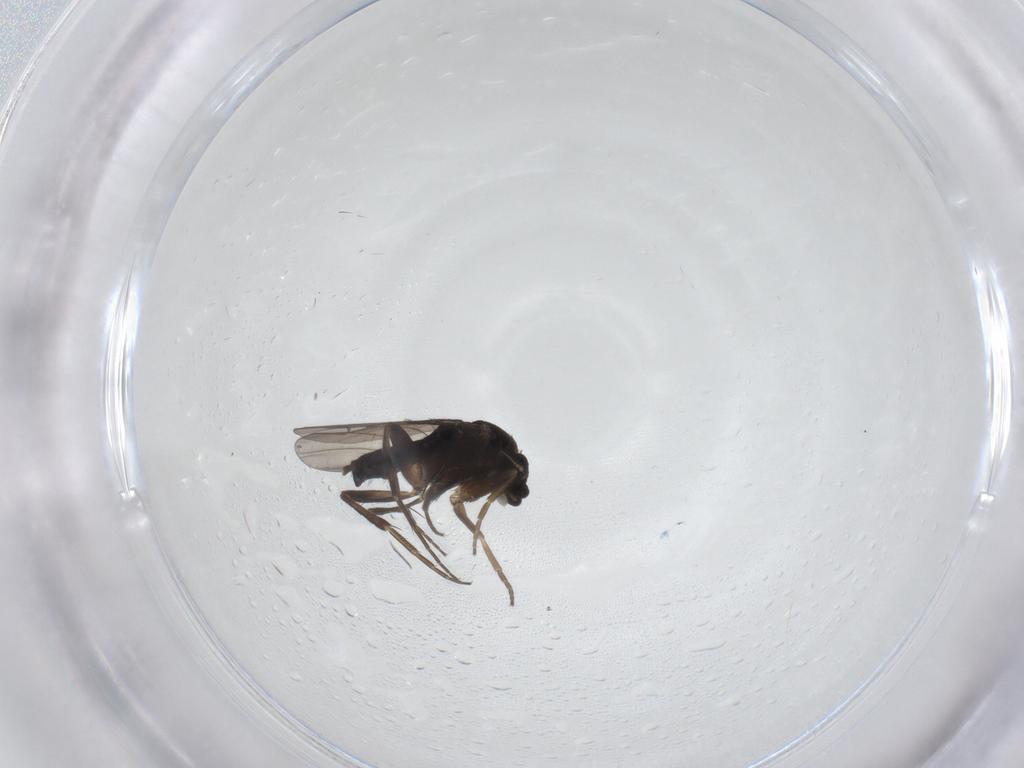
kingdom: Animalia
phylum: Arthropoda
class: Insecta
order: Diptera
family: Phoridae
